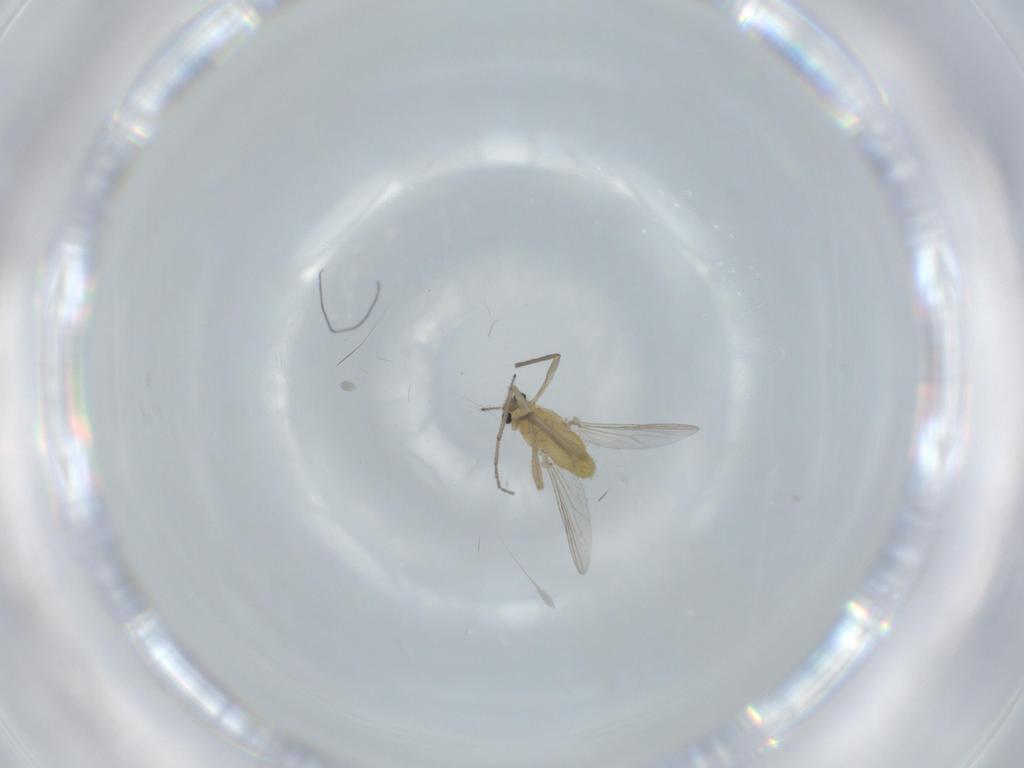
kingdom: Animalia
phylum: Arthropoda
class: Insecta
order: Diptera
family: Chironomidae
